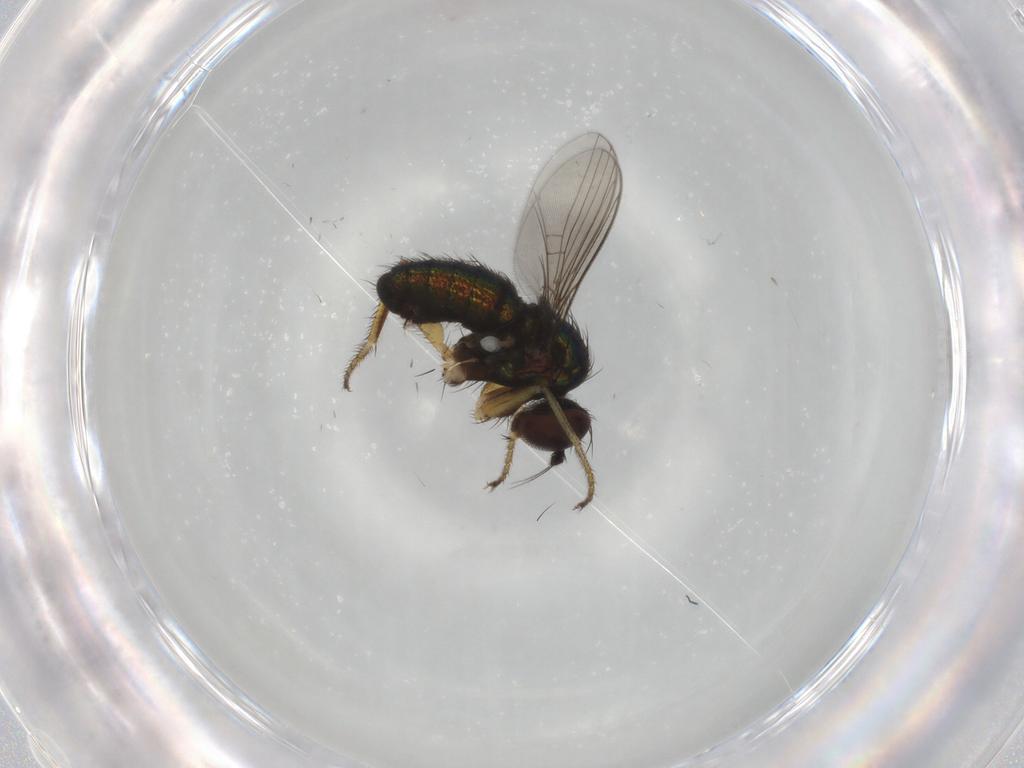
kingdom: Animalia
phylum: Arthropoda
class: Insecta
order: Diptera
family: Dolichopodidae
